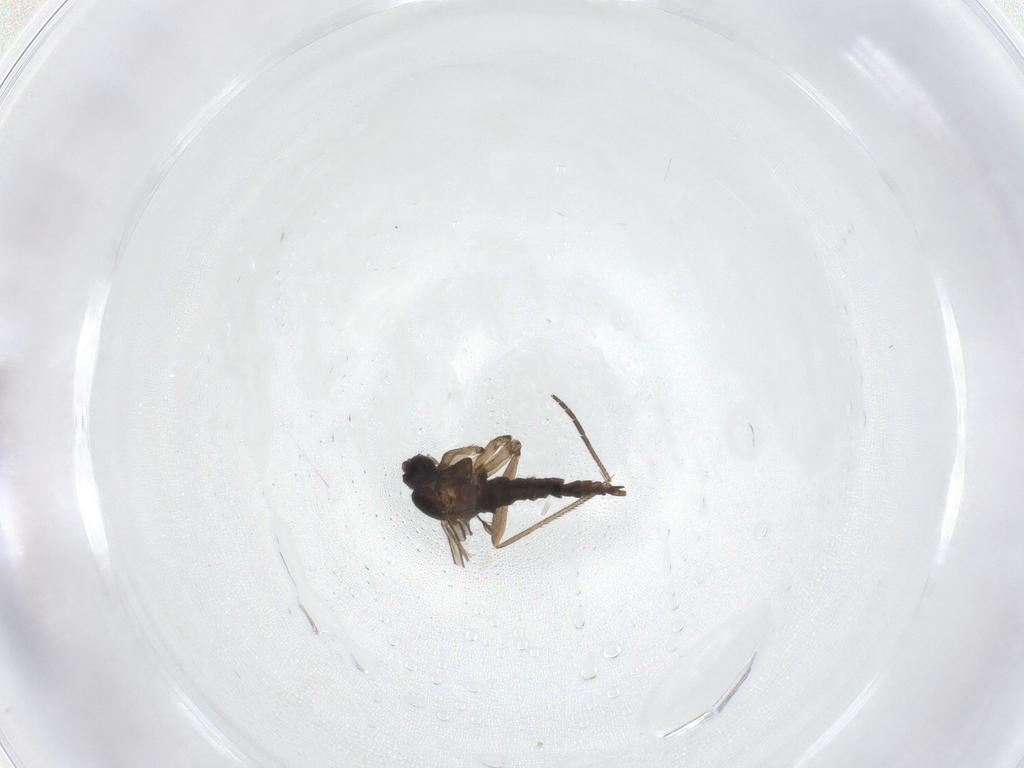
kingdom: Animalia
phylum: Arthropoda
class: Insecta
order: Diptera
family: Sciaridae
